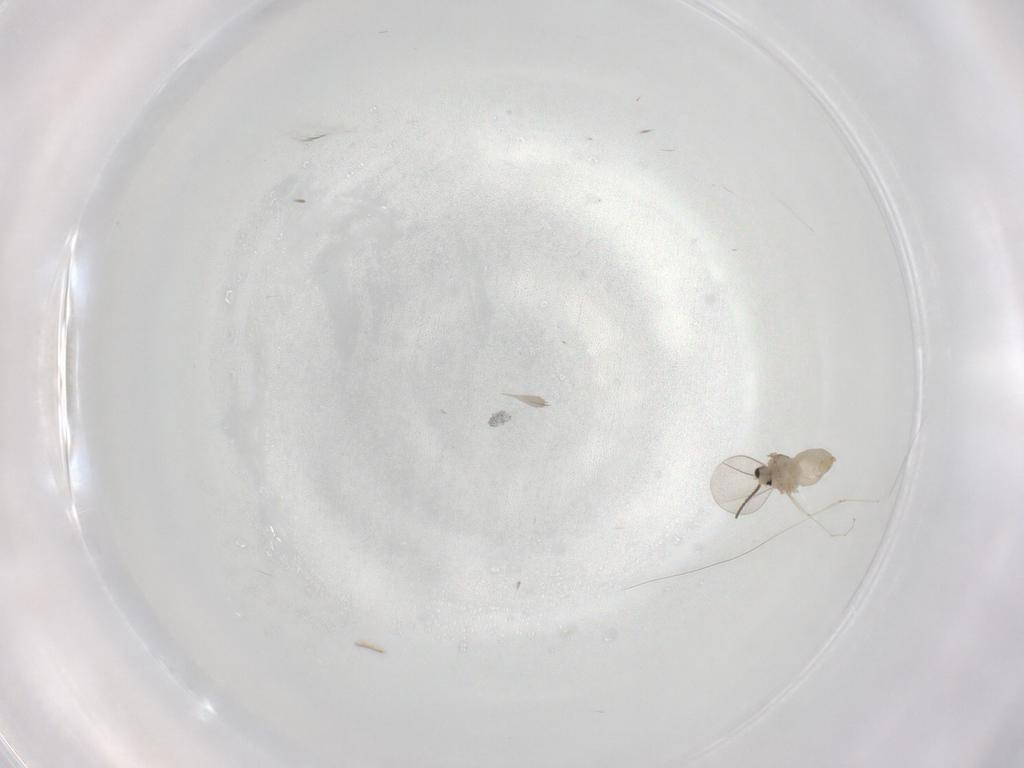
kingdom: Animalia
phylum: Arthropoda
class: Insecta
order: Diptera
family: Cecidomyiidae
